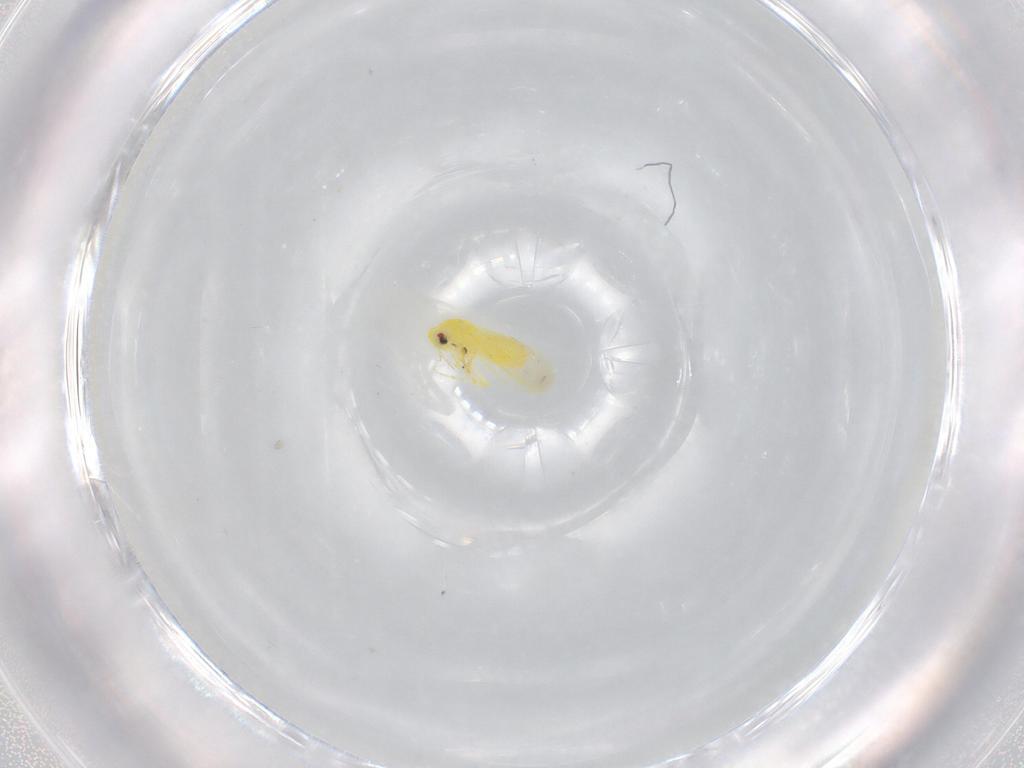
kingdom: Animalia
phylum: Arthropoda
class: Insecta
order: Hemiptera
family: Aleyrodidae
